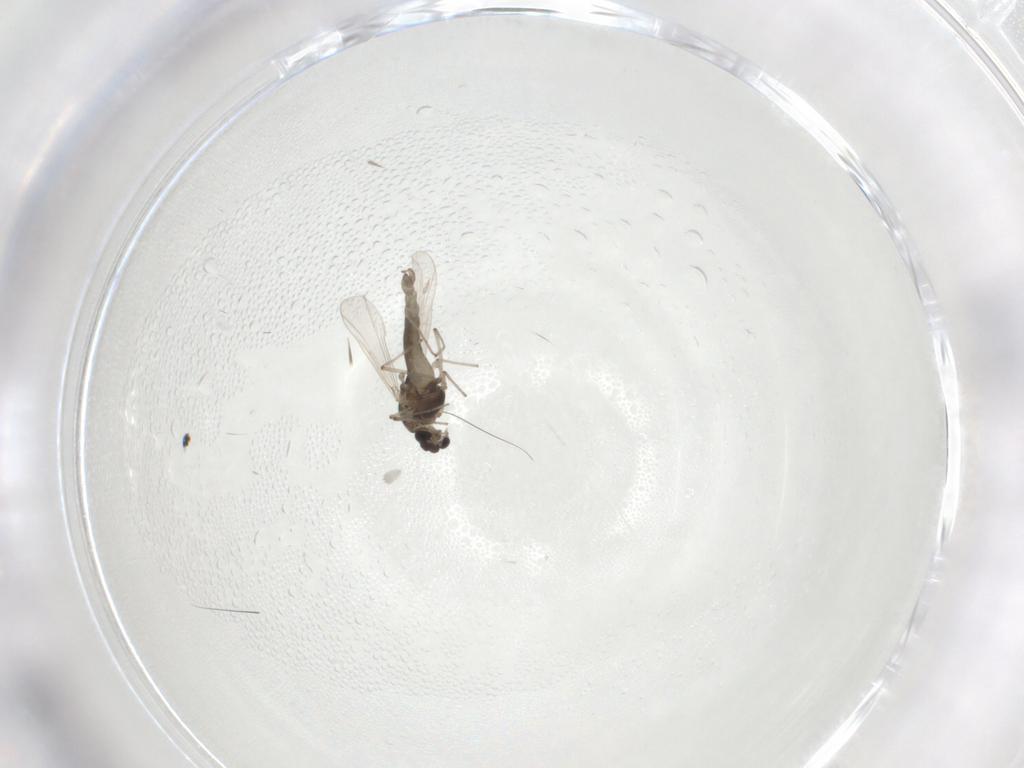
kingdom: Animalia
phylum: Arthropoda
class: Insecta
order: Diptera
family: Chironomidae
